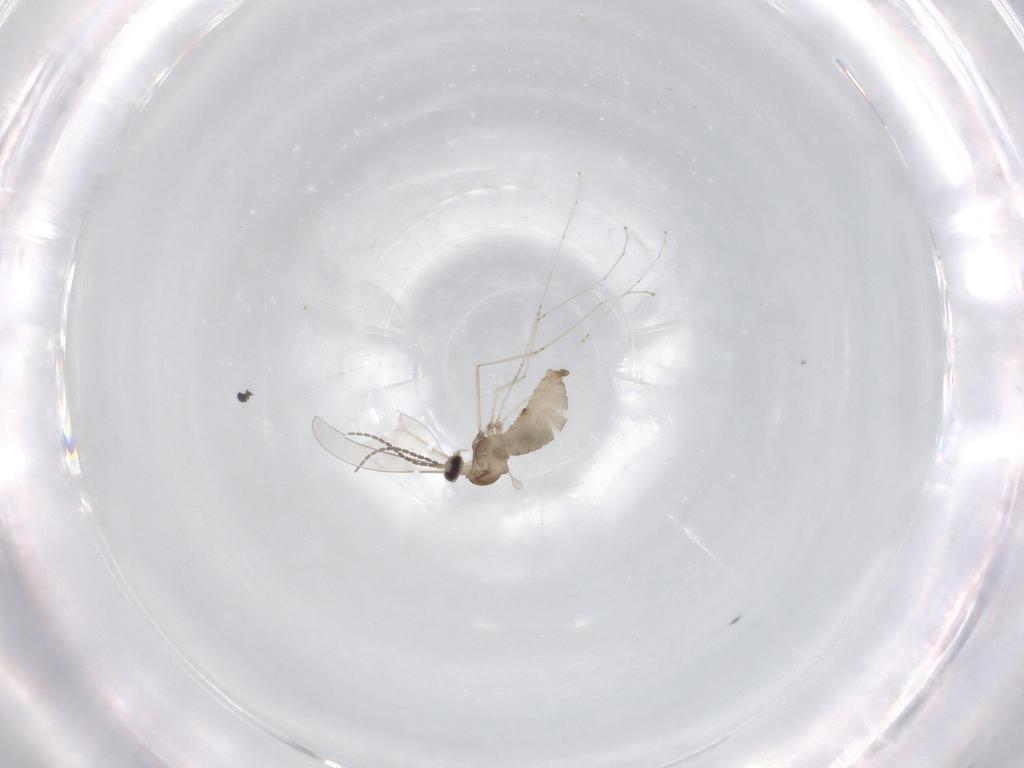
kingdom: Animalia
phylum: Arthropoda
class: Insecta
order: Diptera
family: Cecidomyiidae
